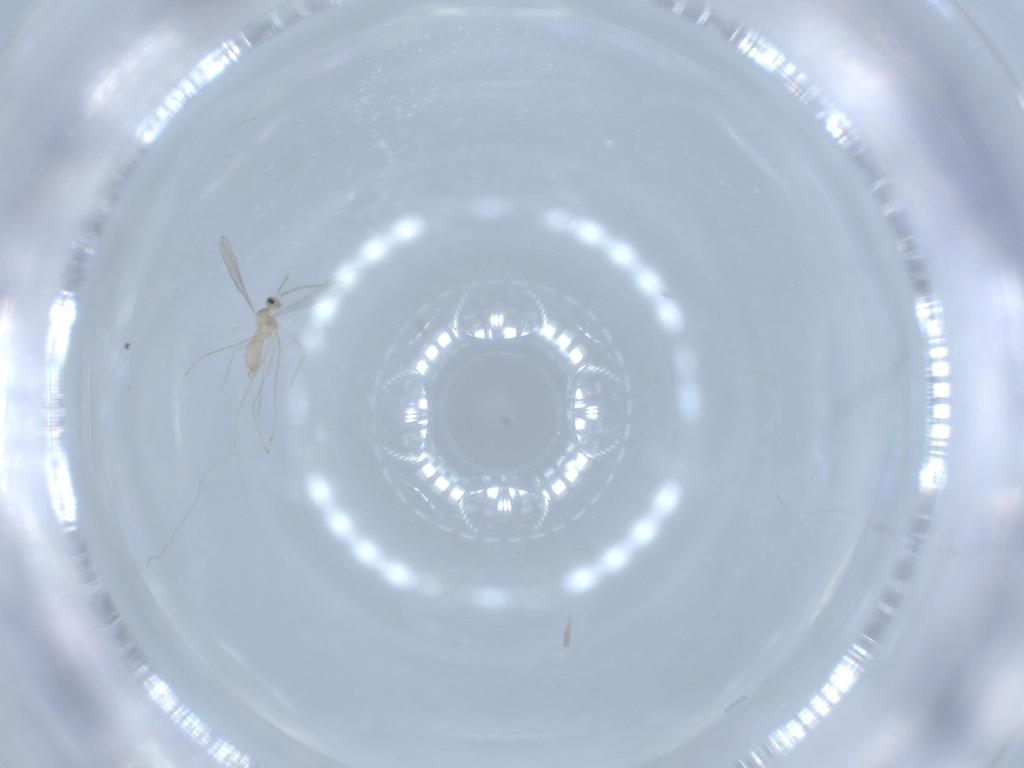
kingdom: Animalia
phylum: Arthropoda
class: Insecta
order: Diptera
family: Cecidomyiidae
